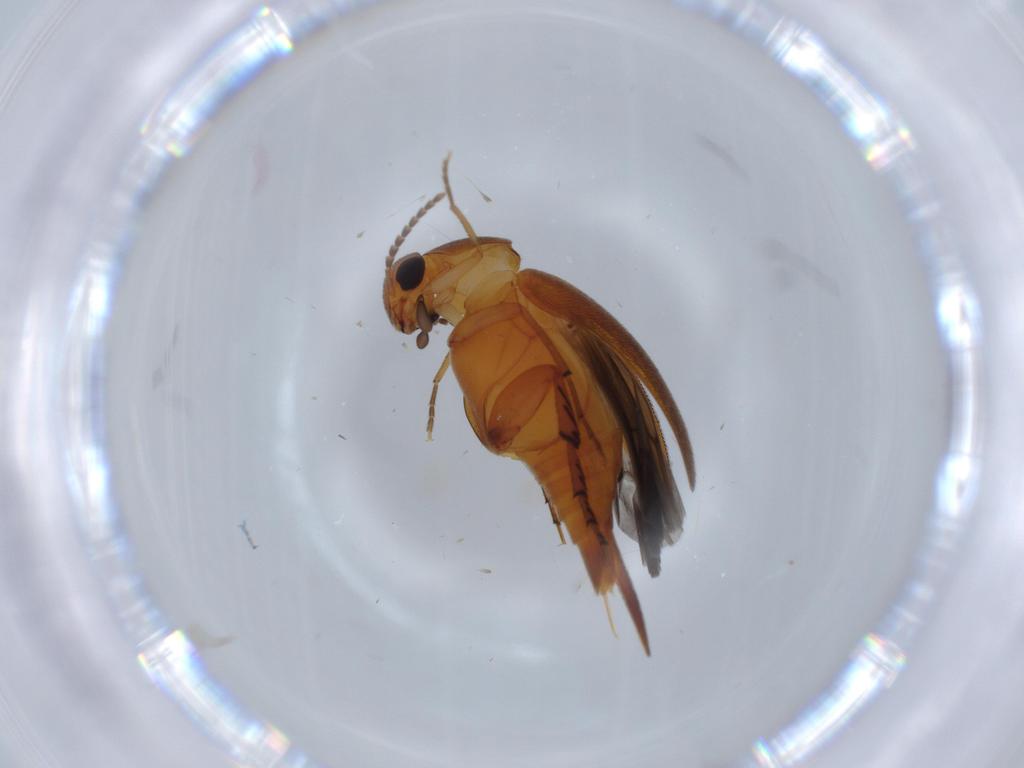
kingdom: Animalia
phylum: Arthropoda
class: Insecta
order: Coleoptera
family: Mordellidae
